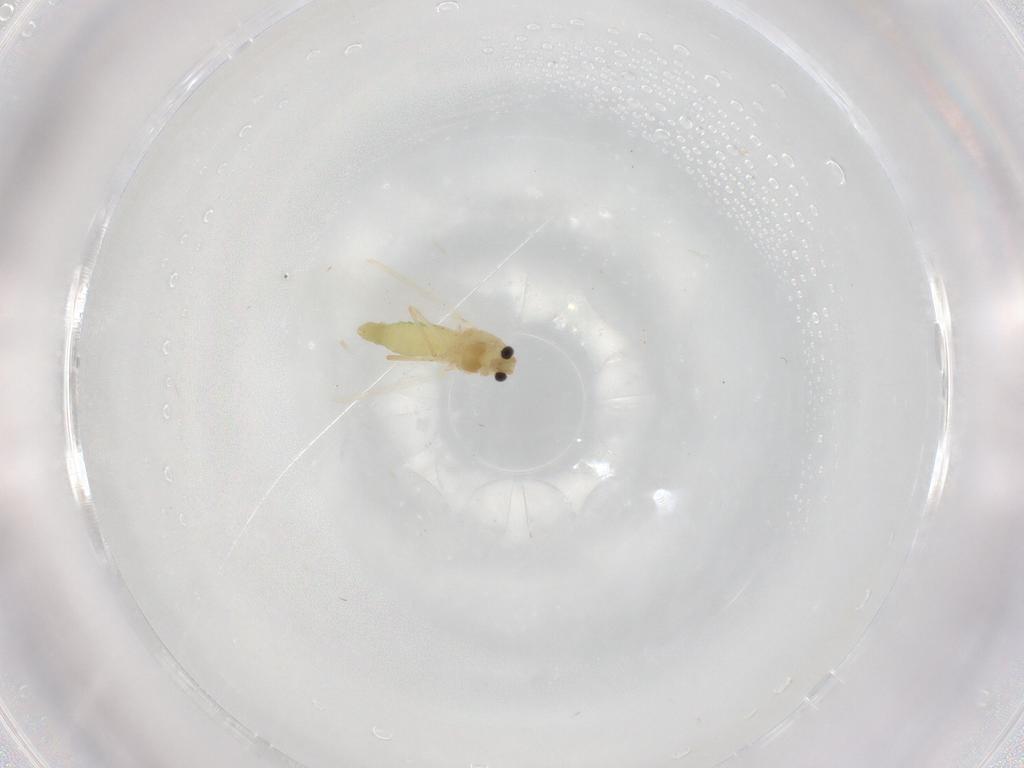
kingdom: Animalia
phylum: Arthropoda
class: Insecta
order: Diptera
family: Chironomidae
